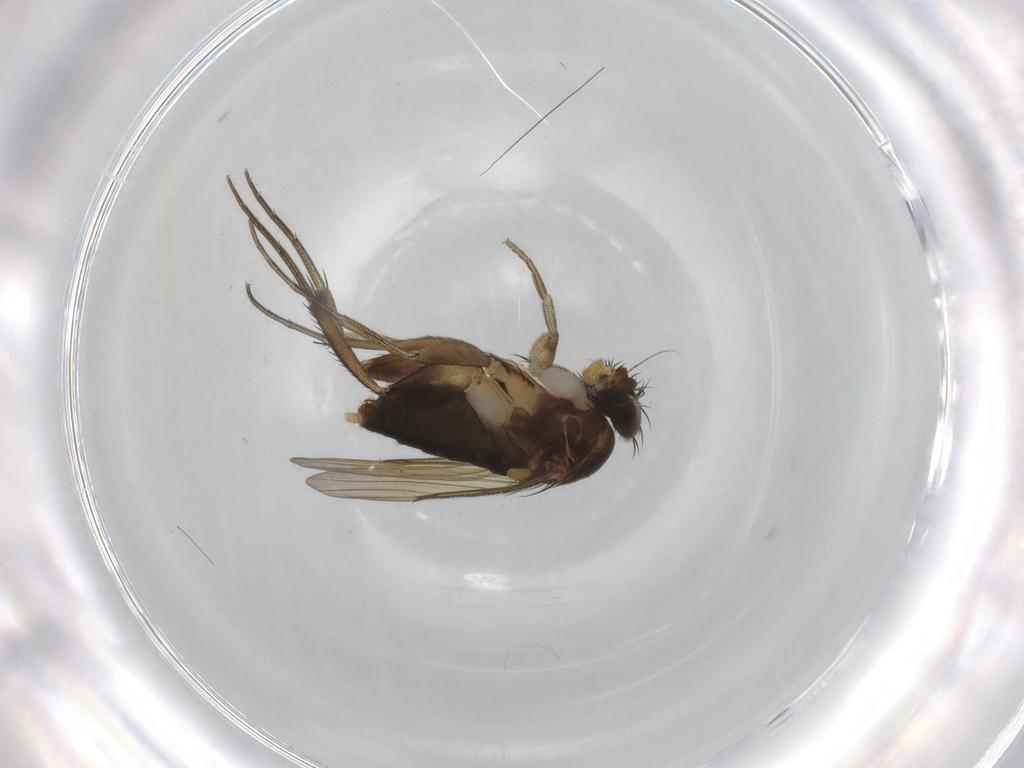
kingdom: Animalia
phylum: Arthropoda
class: Insecta
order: Diptera
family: Phoridae
